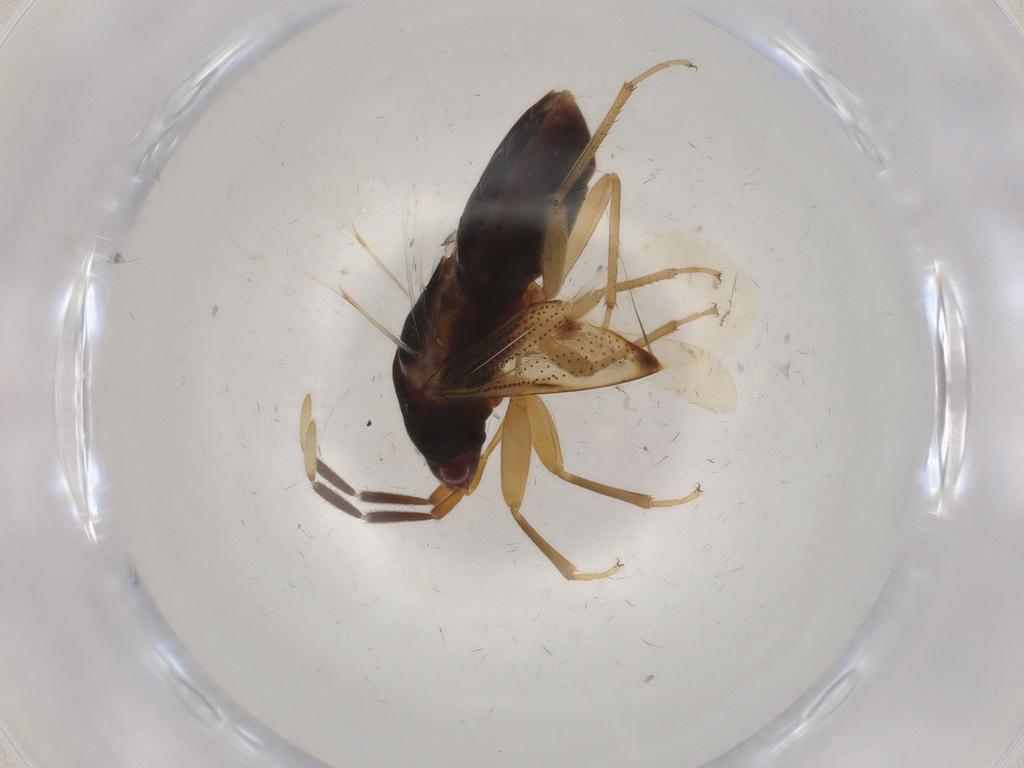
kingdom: Animalia
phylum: Arthropoda
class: Insecta
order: Hemiptera
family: Rhyparochromidae
